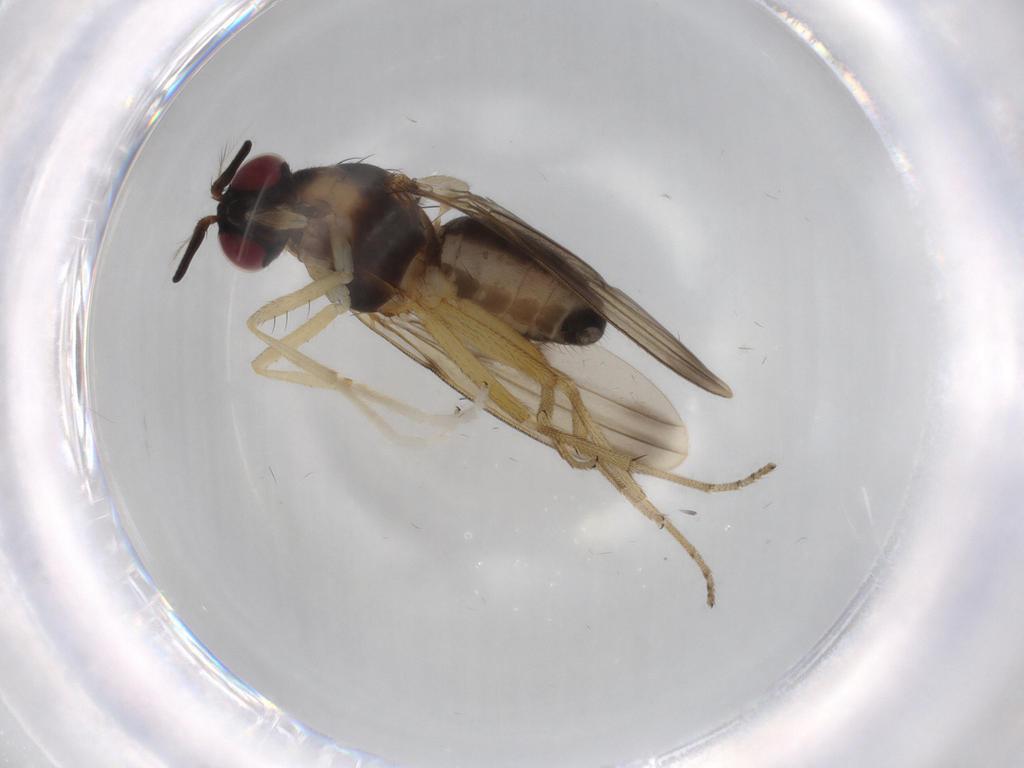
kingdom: Animalia
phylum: Arthropoda
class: Insecta
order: Diptera
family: Lauxaniidae
